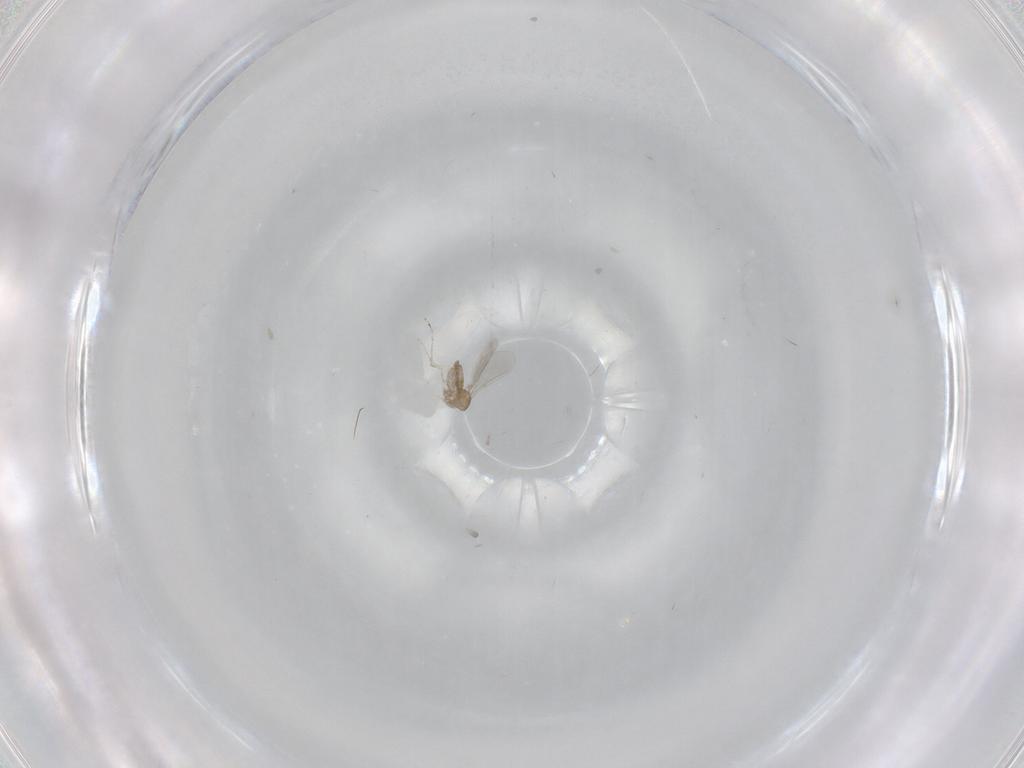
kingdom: Animalia
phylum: Arthropoda
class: Insecta
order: Diptera
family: Cecidomyiidae
